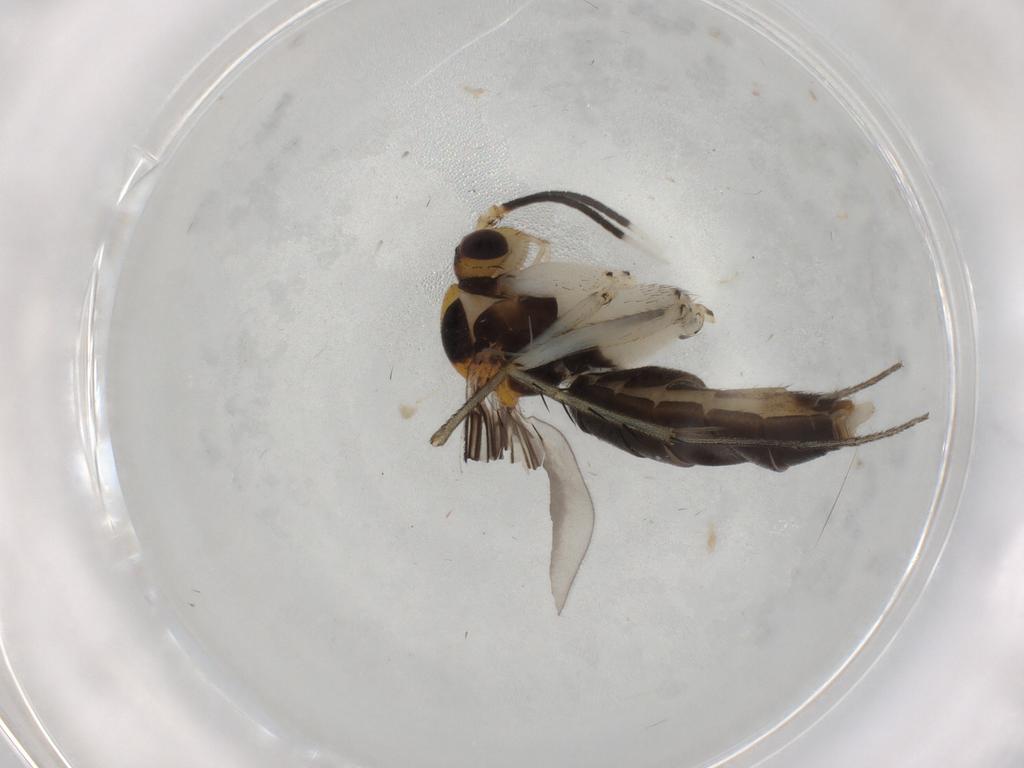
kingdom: Animalia
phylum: Arthropoda
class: Insecta
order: Diptera
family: Mycetophilidae
